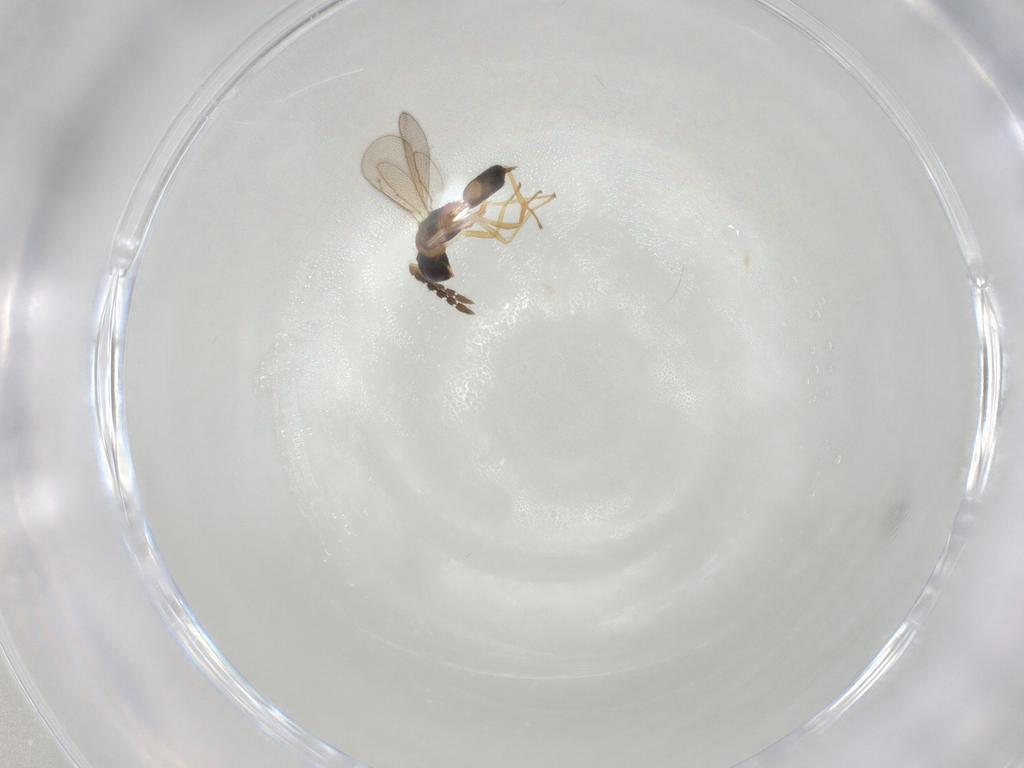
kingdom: Animalia
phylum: Arthropoda
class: Insecta
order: Hymenoptera
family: Eulophidae
